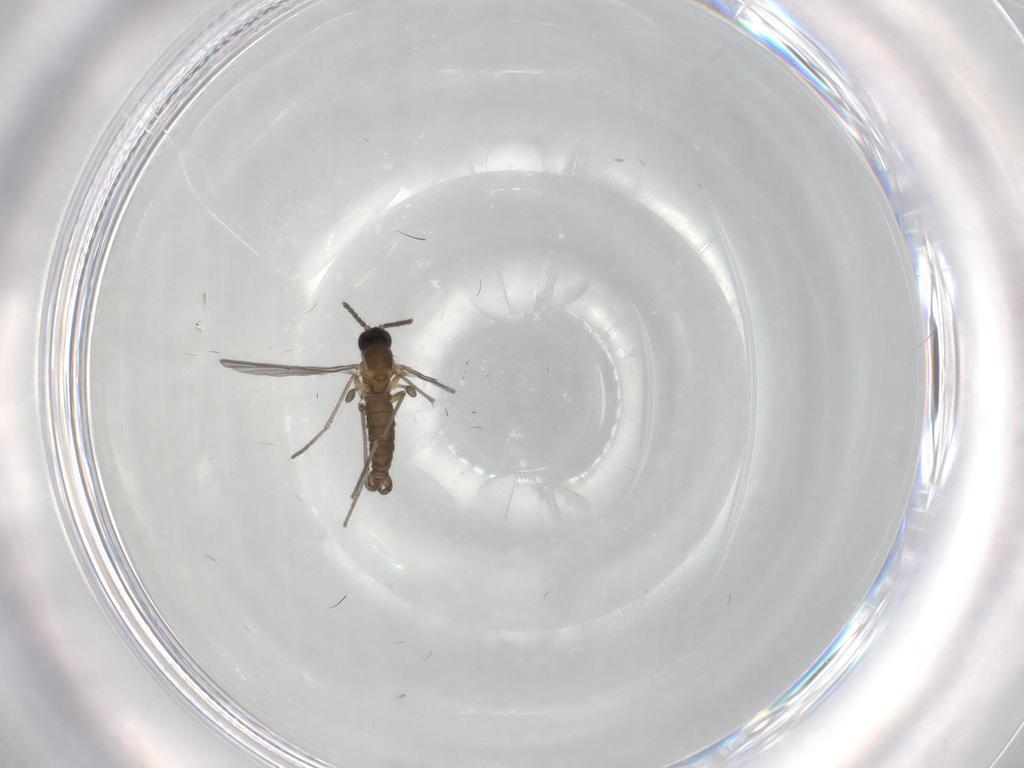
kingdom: Animalia
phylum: Arthropoda
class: Insecta
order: Diptera
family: Sciaridae
